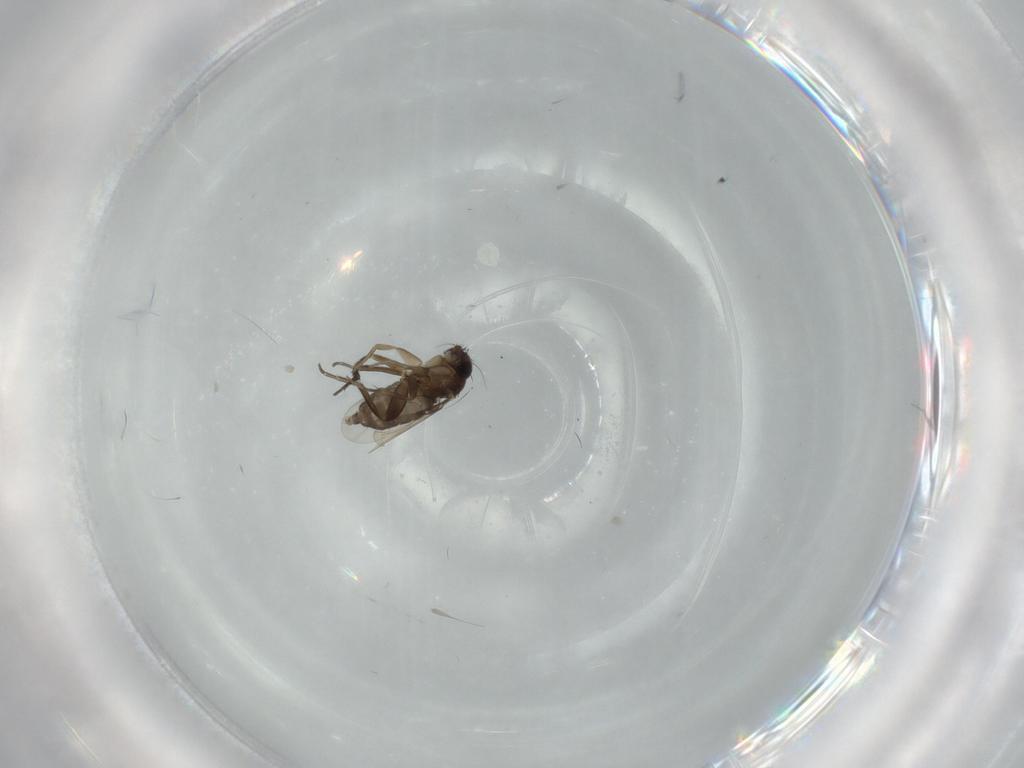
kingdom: Animalia
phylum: Arthropoda
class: Insecta
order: Diptera
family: Phoridae
